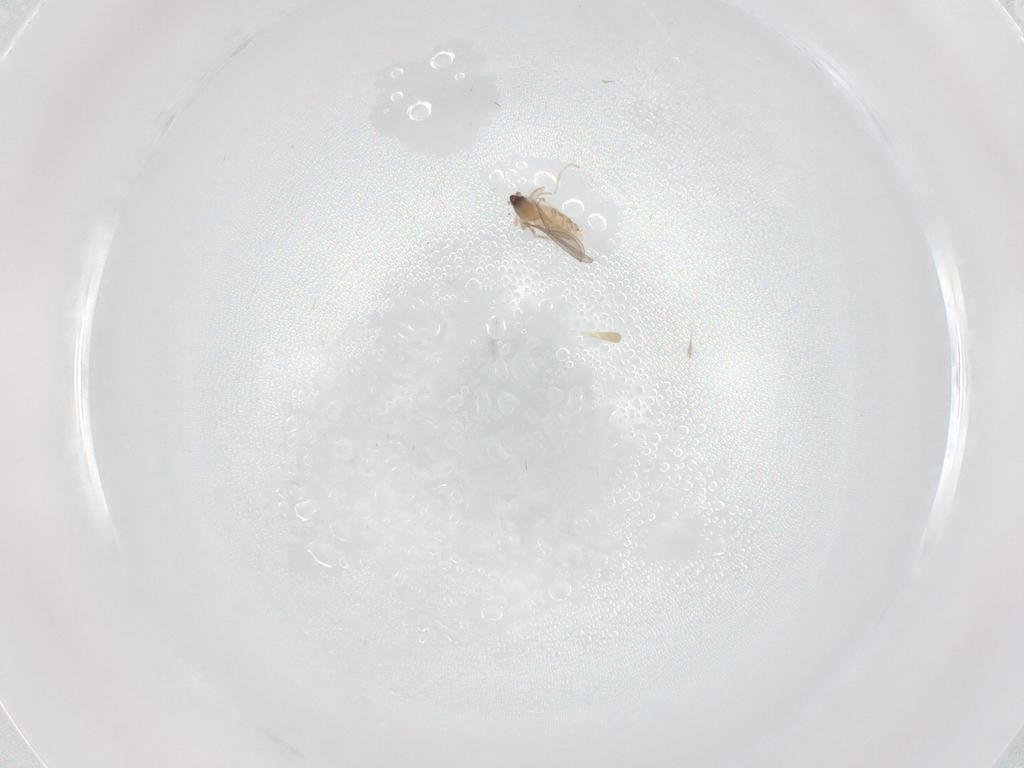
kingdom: Animalia
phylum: Arthropoda
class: Insecta
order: Diptera
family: Cecidomyiidae
